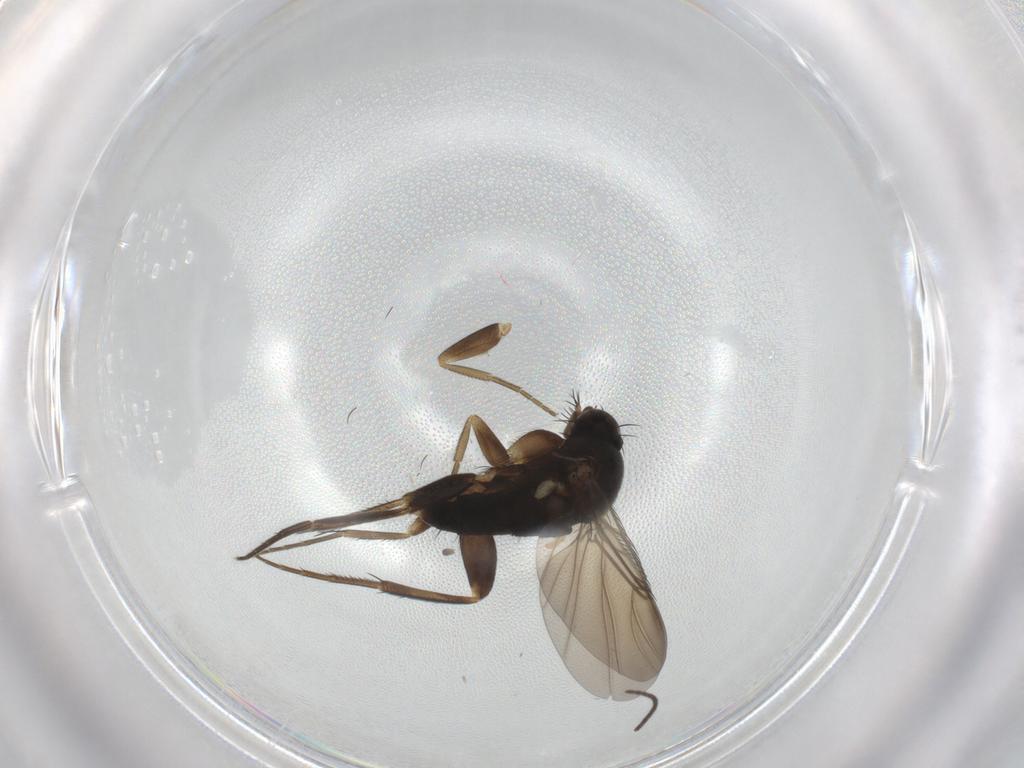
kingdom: Animalia
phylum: Arthropoda
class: Insecta
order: Diptera
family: Phoridae
